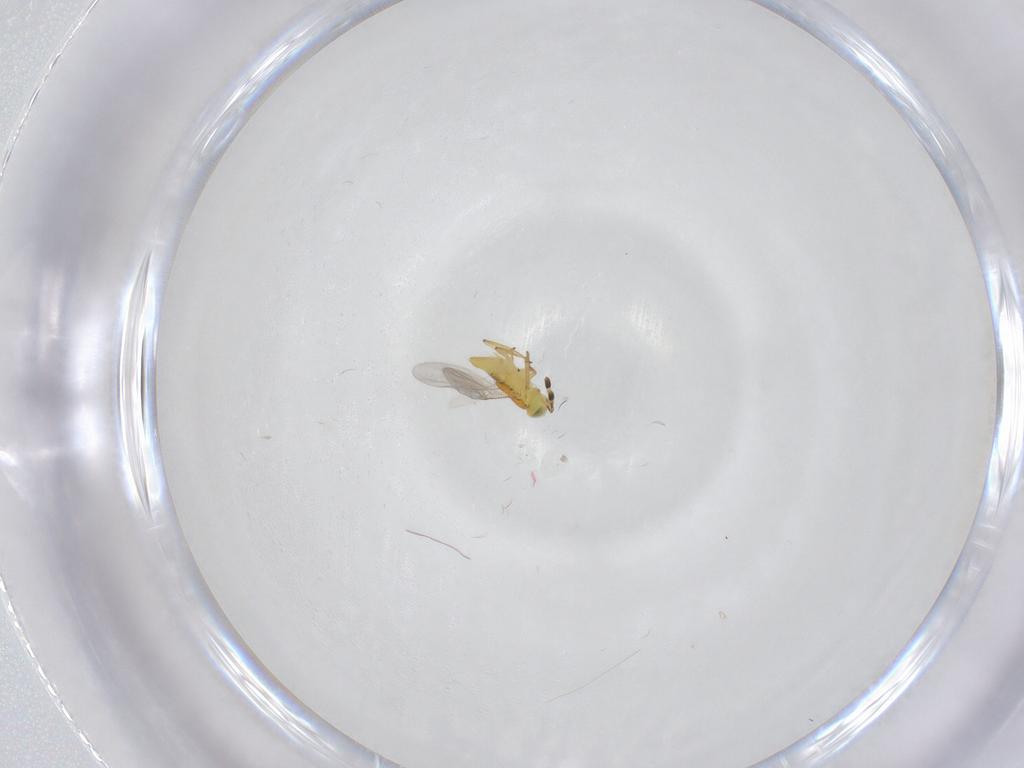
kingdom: Animalia
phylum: Arthropoda
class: Insecta
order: Hymenoptera
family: Encyrtidae
